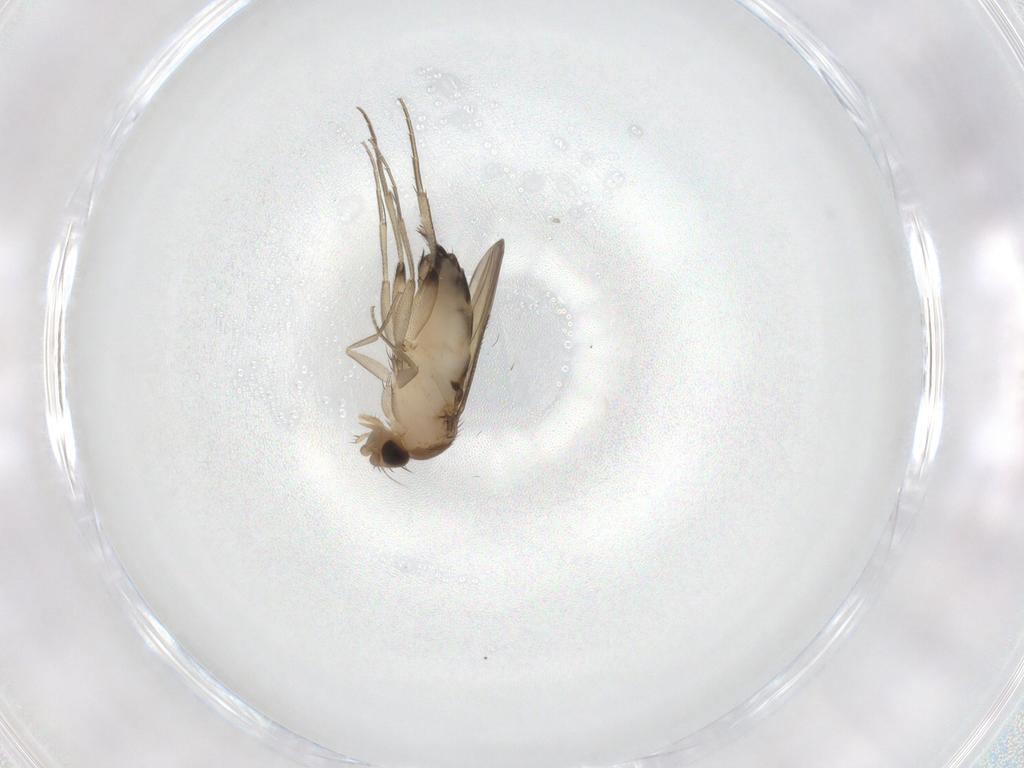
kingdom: Animalia
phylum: Arthropoda
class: Insecta
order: Diptera
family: Phoridae
